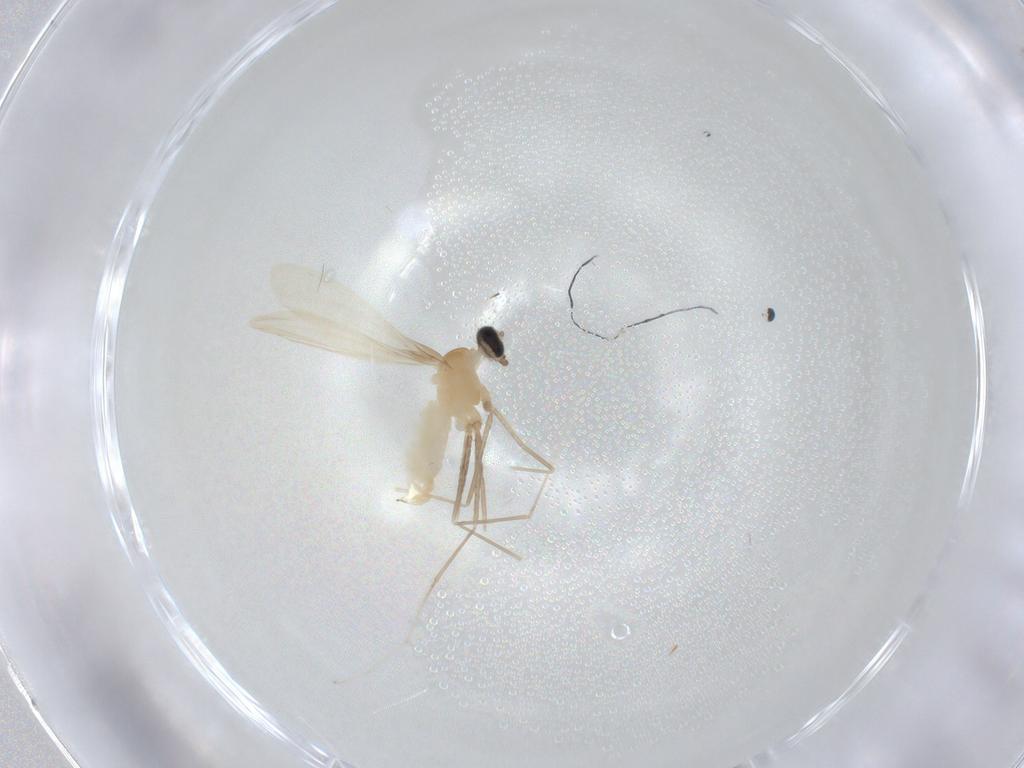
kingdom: Animalia
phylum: Arthropoda
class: Insecta
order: Diptera
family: Cecidomyiidae
